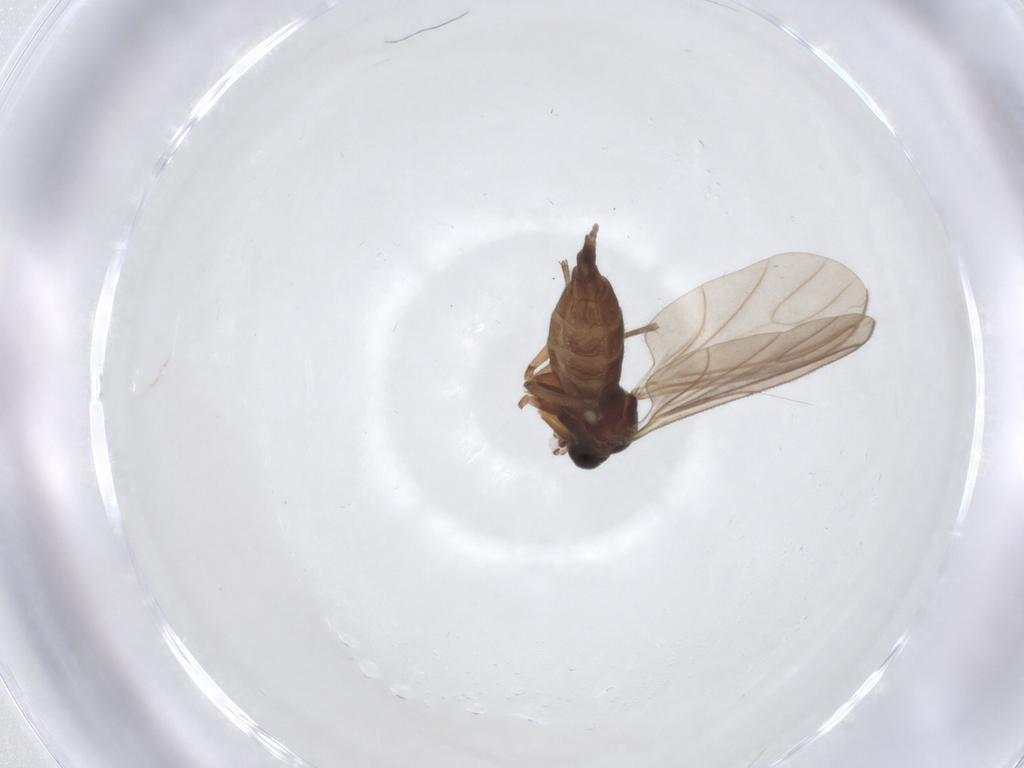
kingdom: Animalia
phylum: Arthropoda
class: Insecta
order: Diptera
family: Sciaridae
